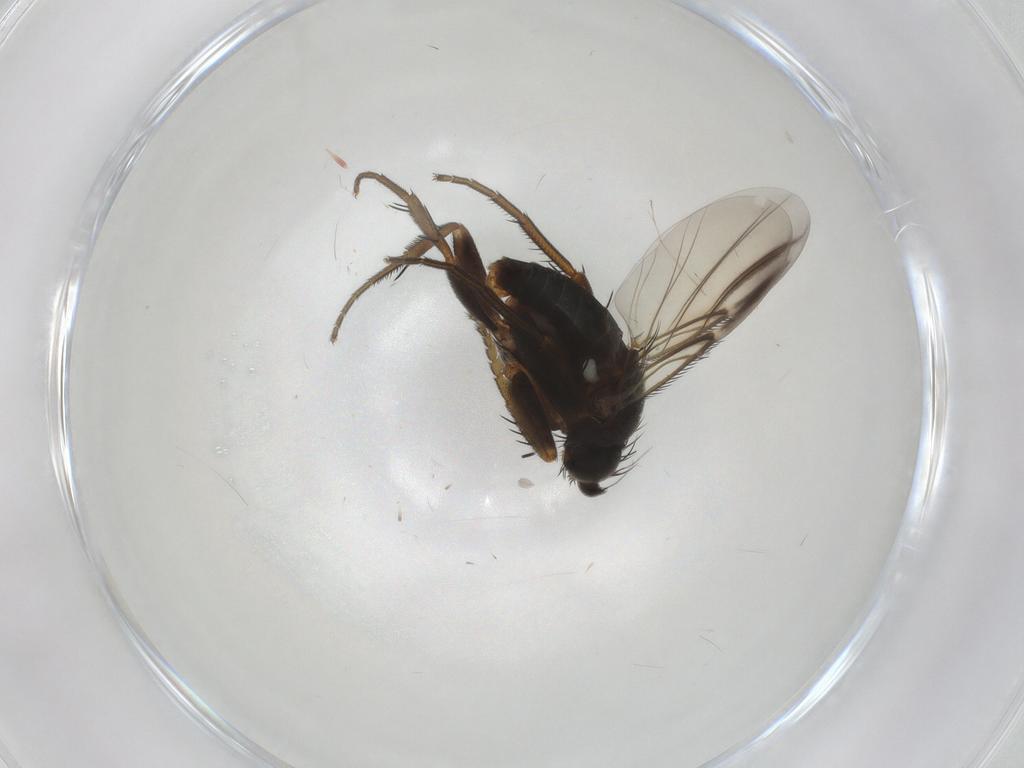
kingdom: Animalia
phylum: Arthropoda
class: Insecta
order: Diptera
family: Phoridae
